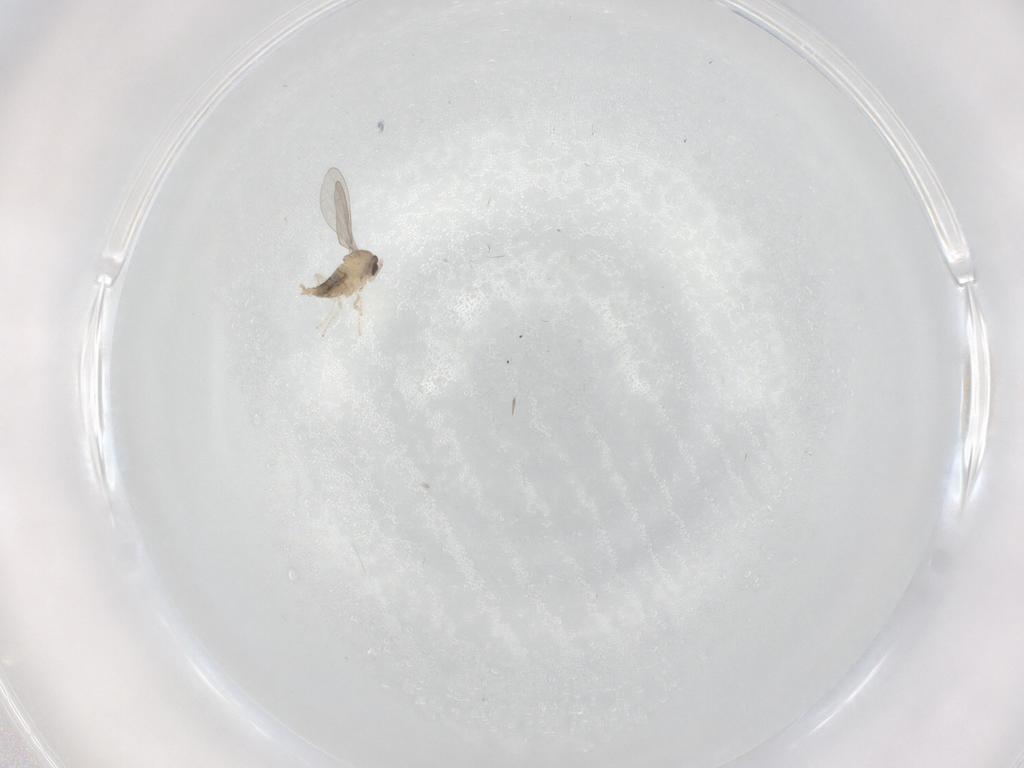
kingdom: Animalia
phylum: Arthropoda
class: Insecta
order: Diptera
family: Cecidomyiidae
